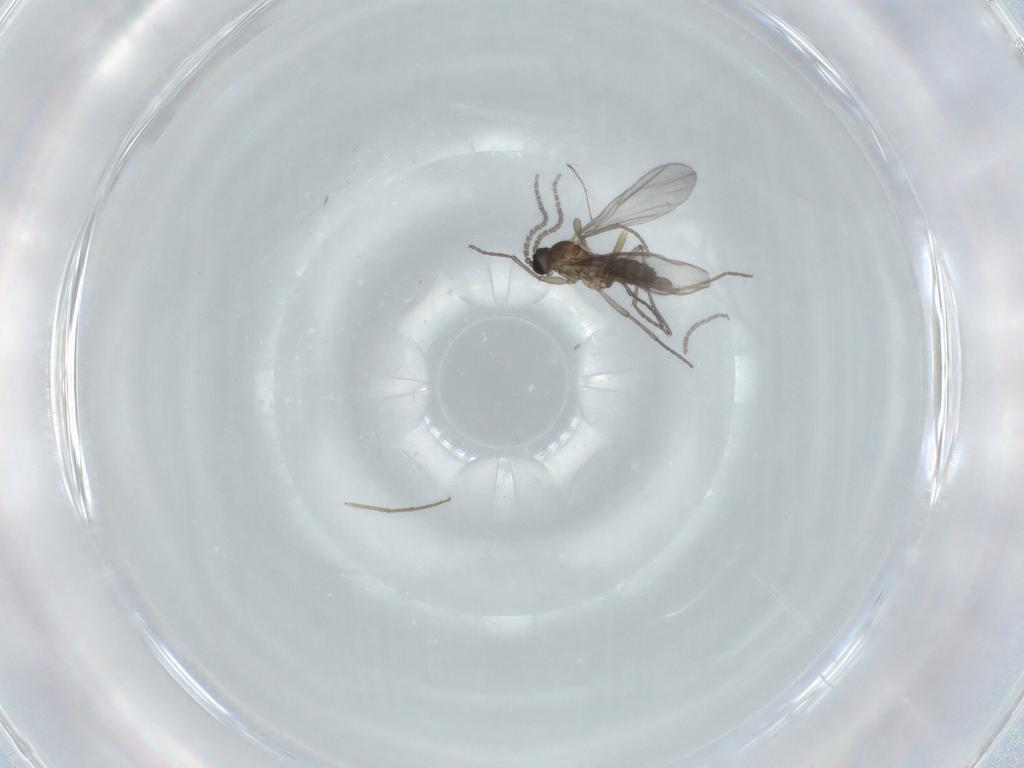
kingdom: Animalia
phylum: Arthropoda
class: Insecta
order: Diptera
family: Sciaridae
